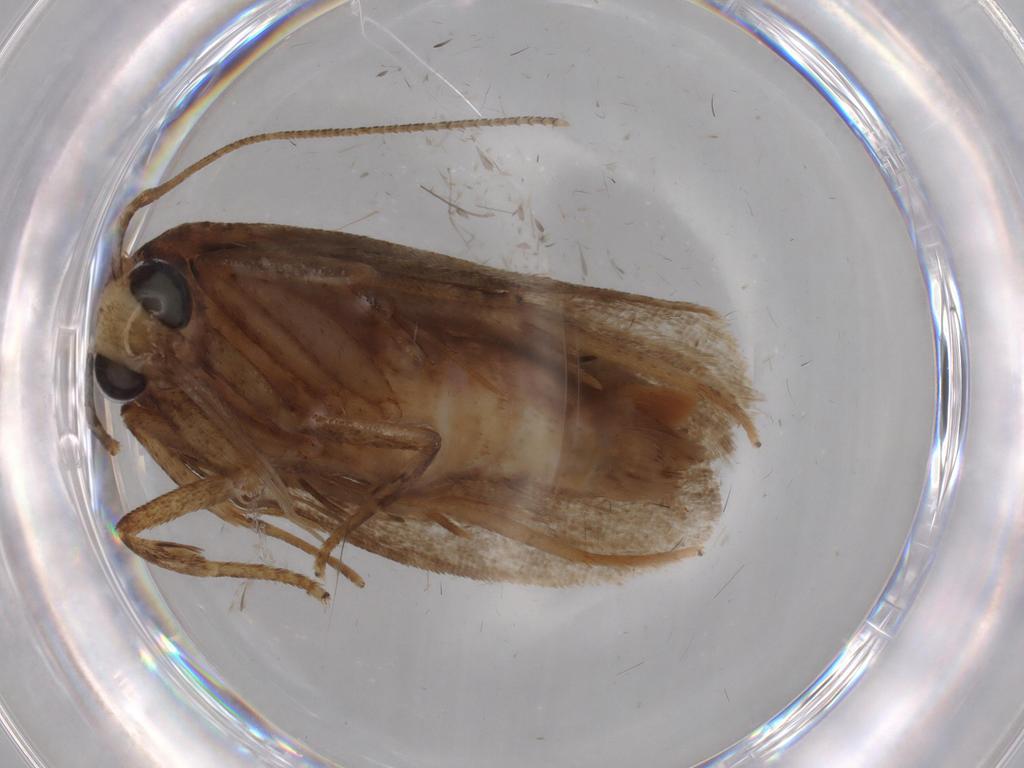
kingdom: Animalia
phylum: Arthropoda
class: Insecta
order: Lepidoptera
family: Autostichidae
